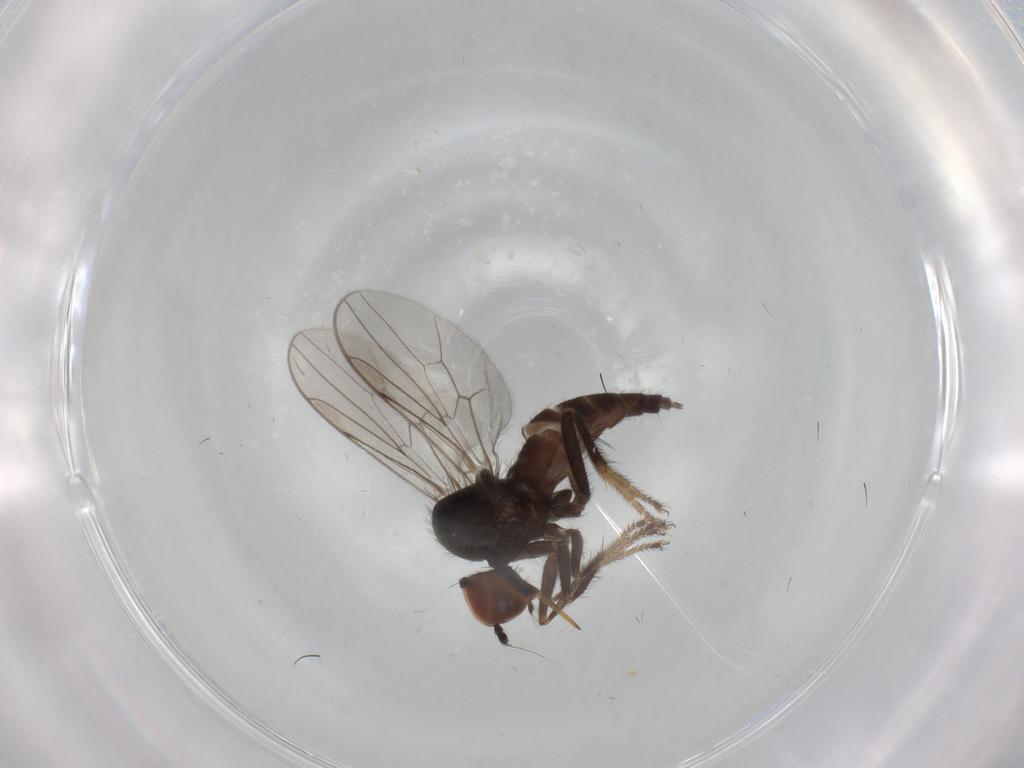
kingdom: Animalia
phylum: Arthropoda
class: Insecta
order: Diptera
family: Hybotidae
